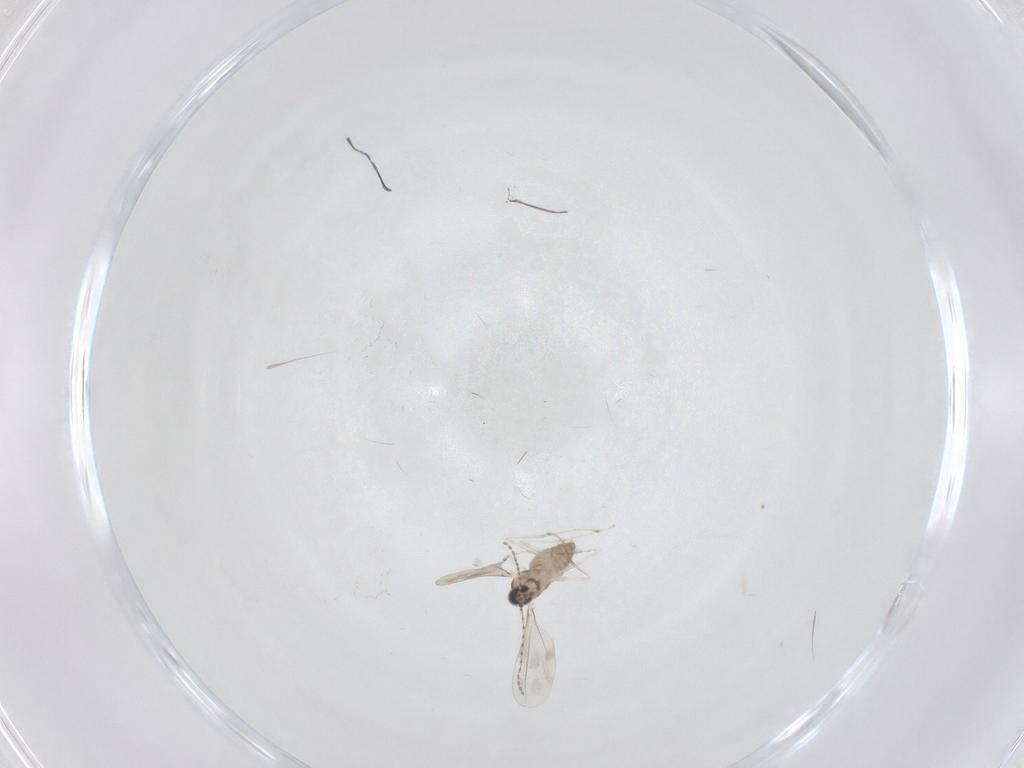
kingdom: Animalia
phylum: Arthropoda
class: Insecta
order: Diptera
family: Cecidomyiidae
